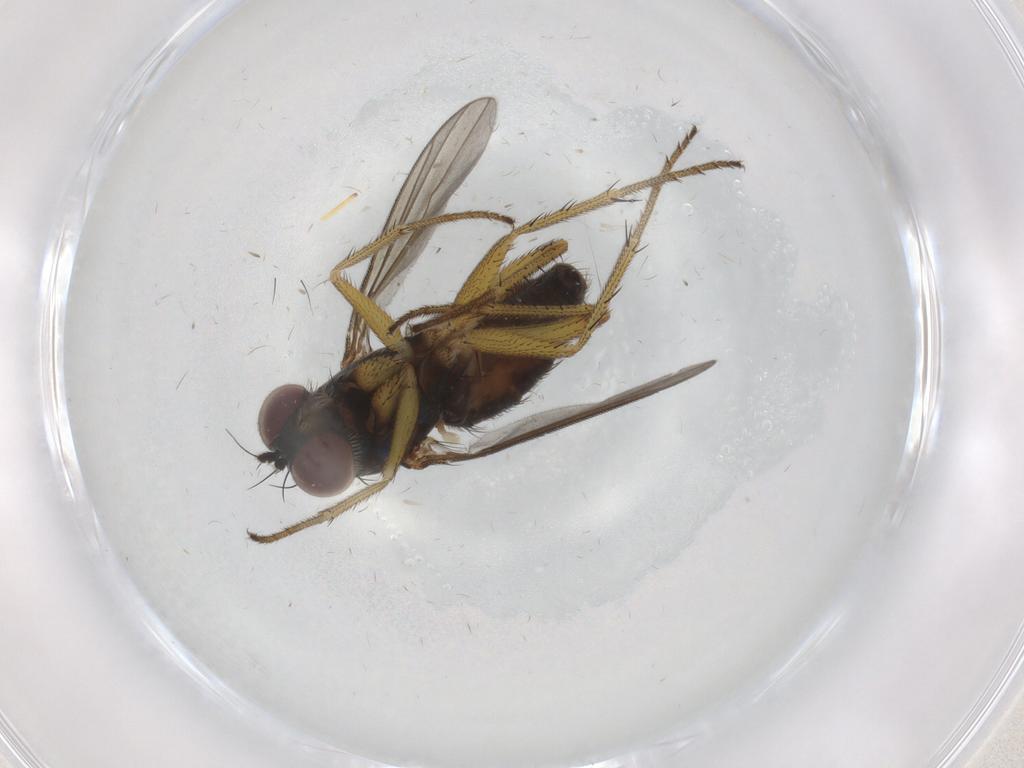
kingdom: Animalia
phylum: Arthropoda
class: Insecta
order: Diptera
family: Dolichopodidae
